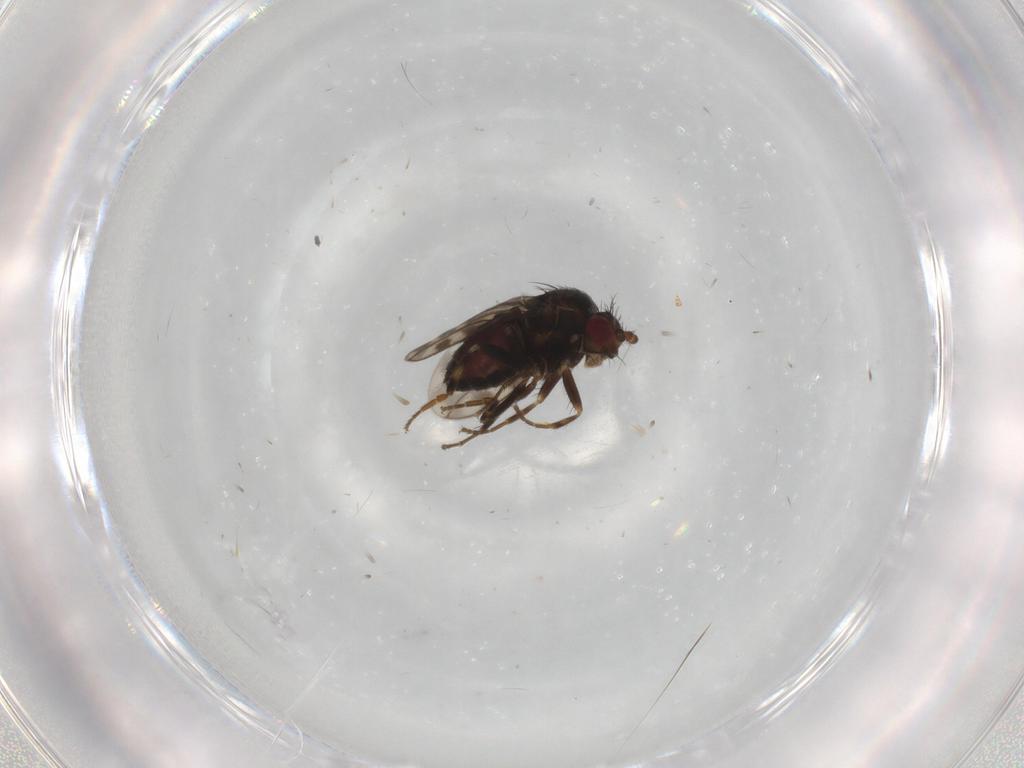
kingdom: Animalia
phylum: Arthropoda
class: Insecta
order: Diptera
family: Sphaeroceridae
